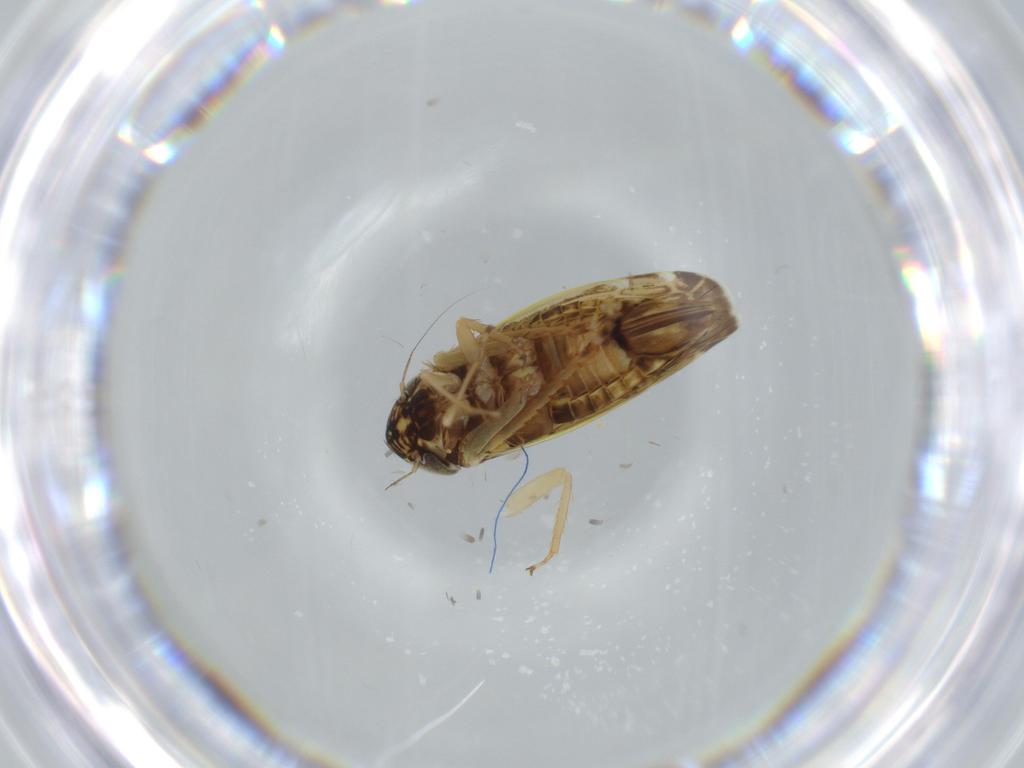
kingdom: Animalia
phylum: Arthropoda
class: Insecta
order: Hemiptera
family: Cicadellidae
